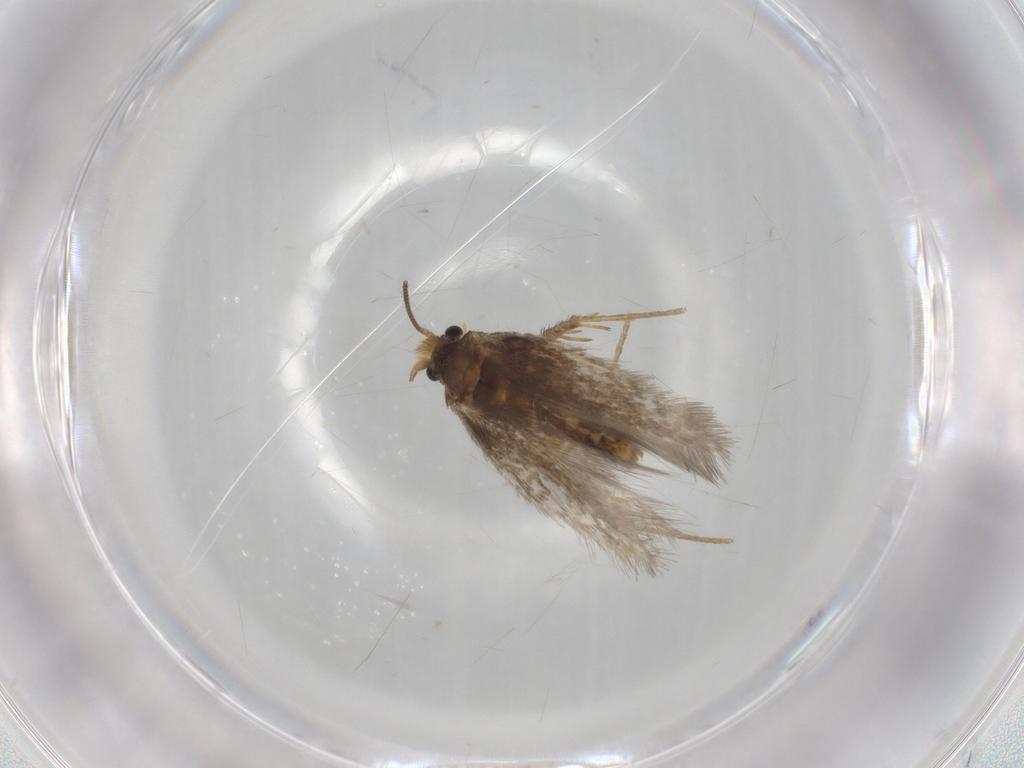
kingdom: Animalia
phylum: Arthropoda
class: Insecta
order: Lepidoptera
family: Nepticulidae
